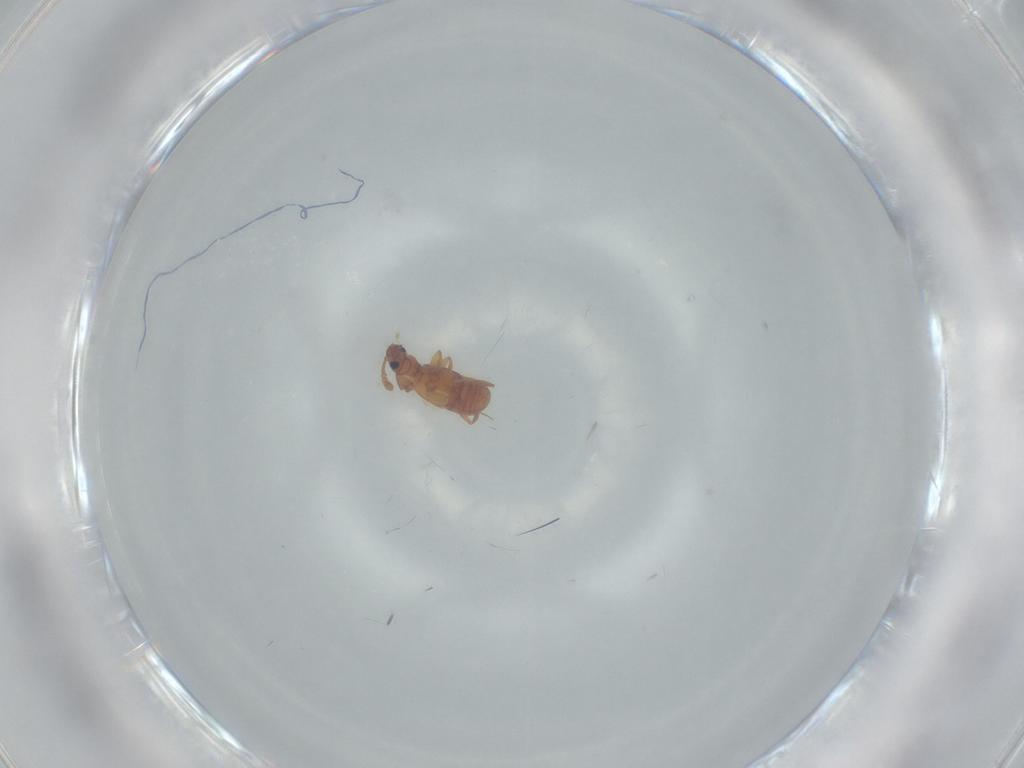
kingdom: Animalia
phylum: Arthropoda
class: Insecta
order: Coleoptera
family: Staphylinidae
